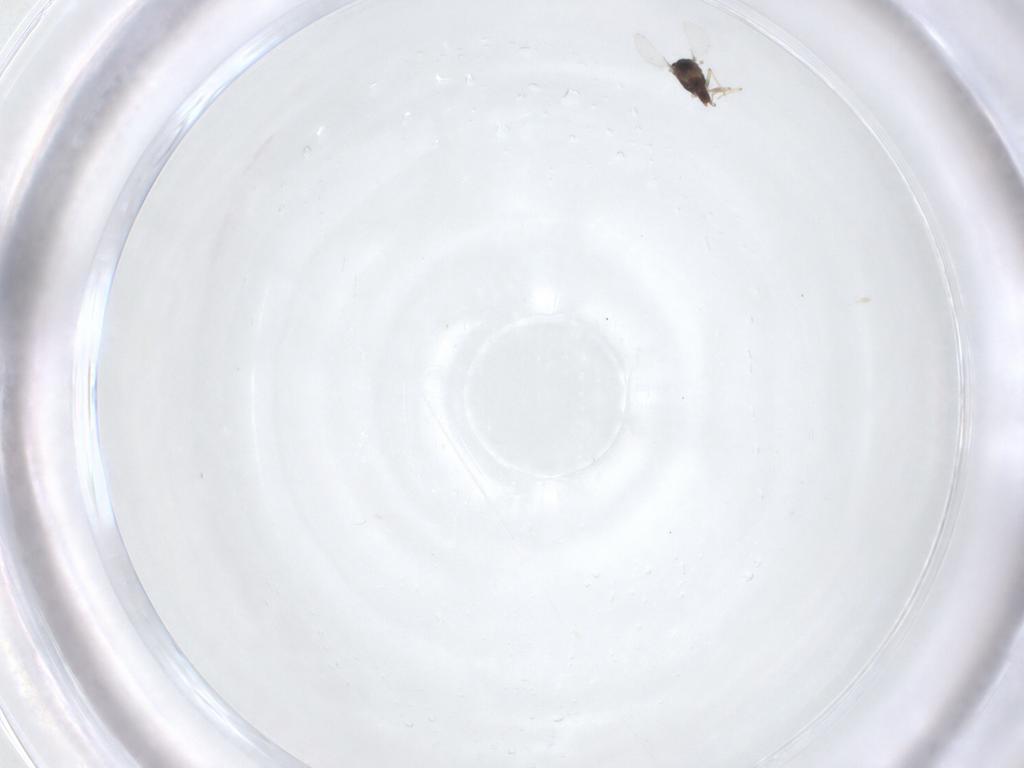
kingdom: Animalia
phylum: Arthropoda
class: Insecta
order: Diptera
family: Chironomidae
